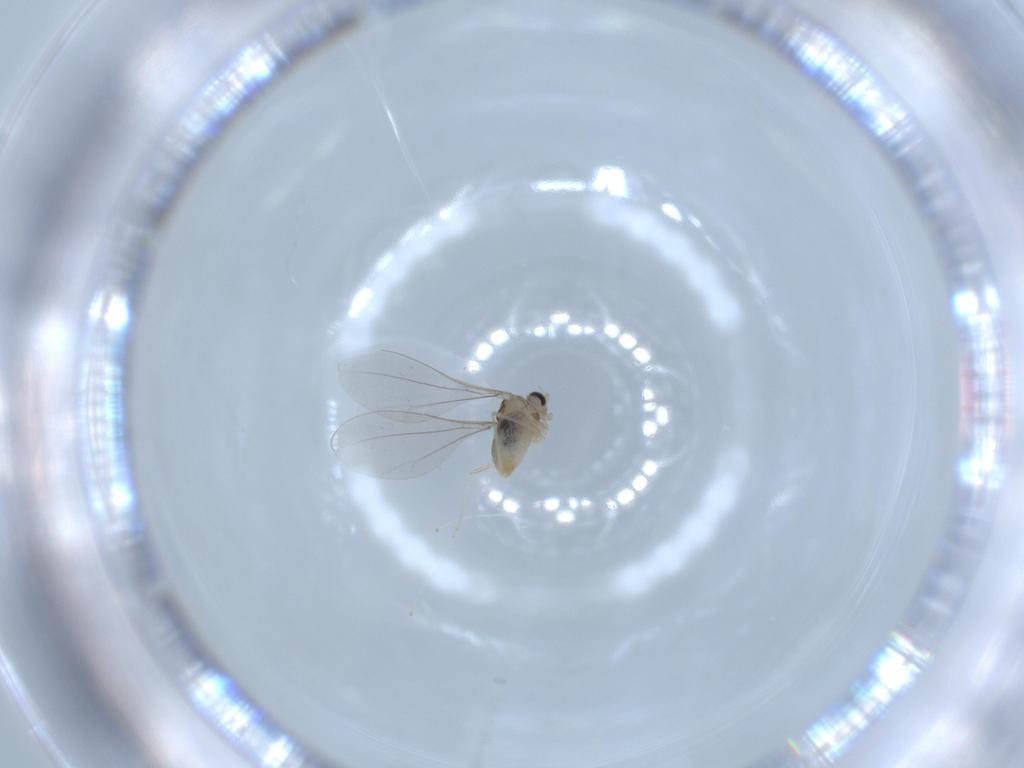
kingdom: Animalia
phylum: Arthropoda
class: Insecta
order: Diptera
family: Cecidomyiidae
